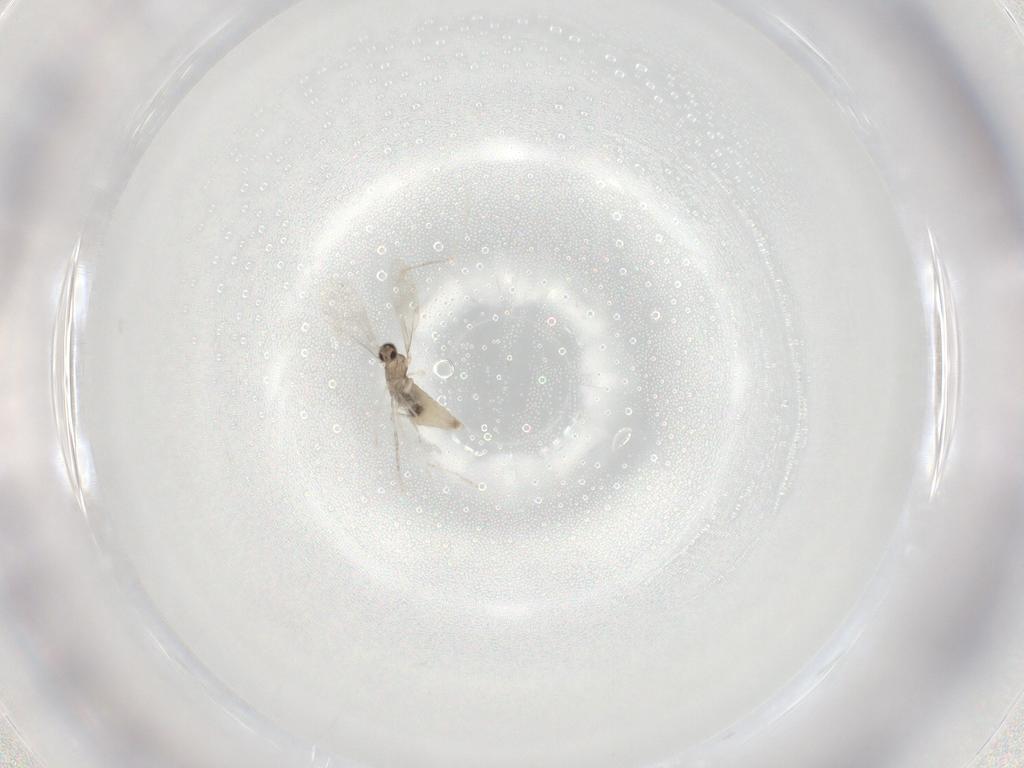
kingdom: Animalia
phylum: Arthropoda
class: Insecta
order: Diptera
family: Cecidomyiidae
